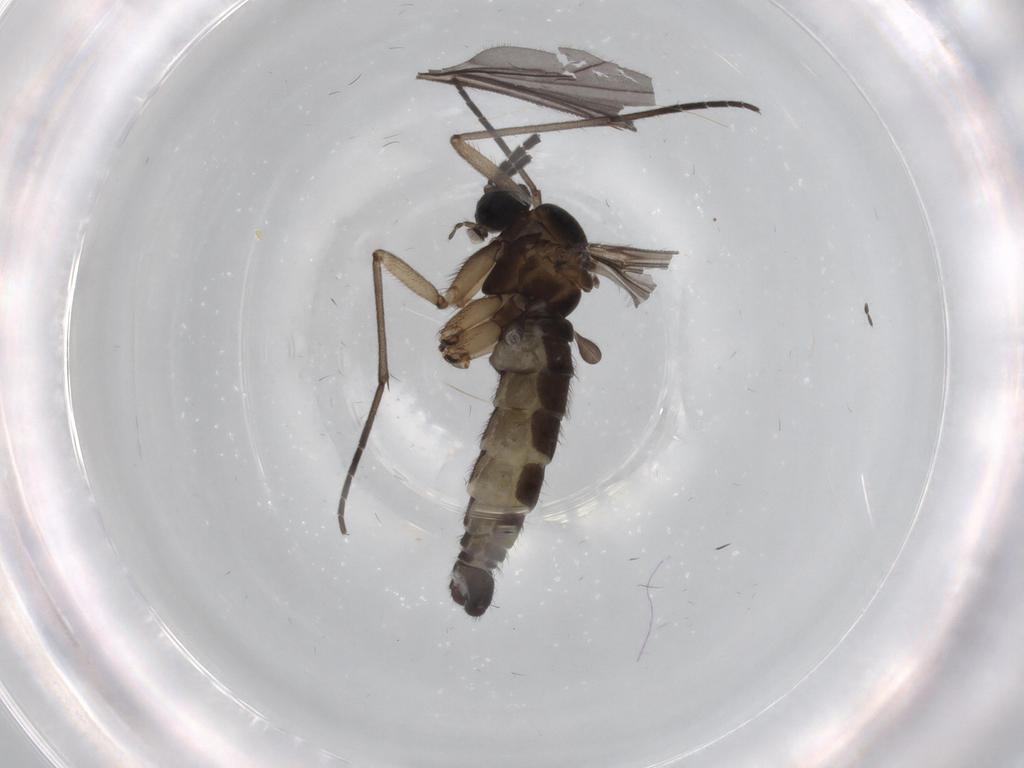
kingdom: Animalia
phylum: Arthropoda
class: Insecta
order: Diptera
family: Sciaridae
